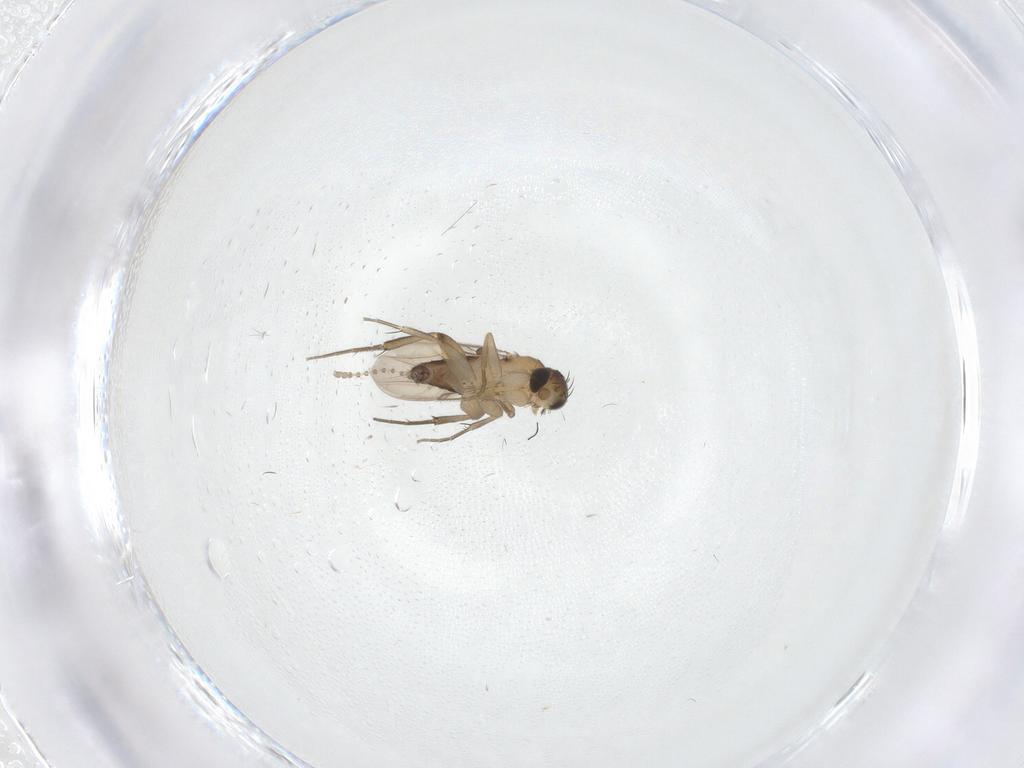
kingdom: Animalia
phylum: Arthropoda
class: Insecta
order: Diptera
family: Phoridae
